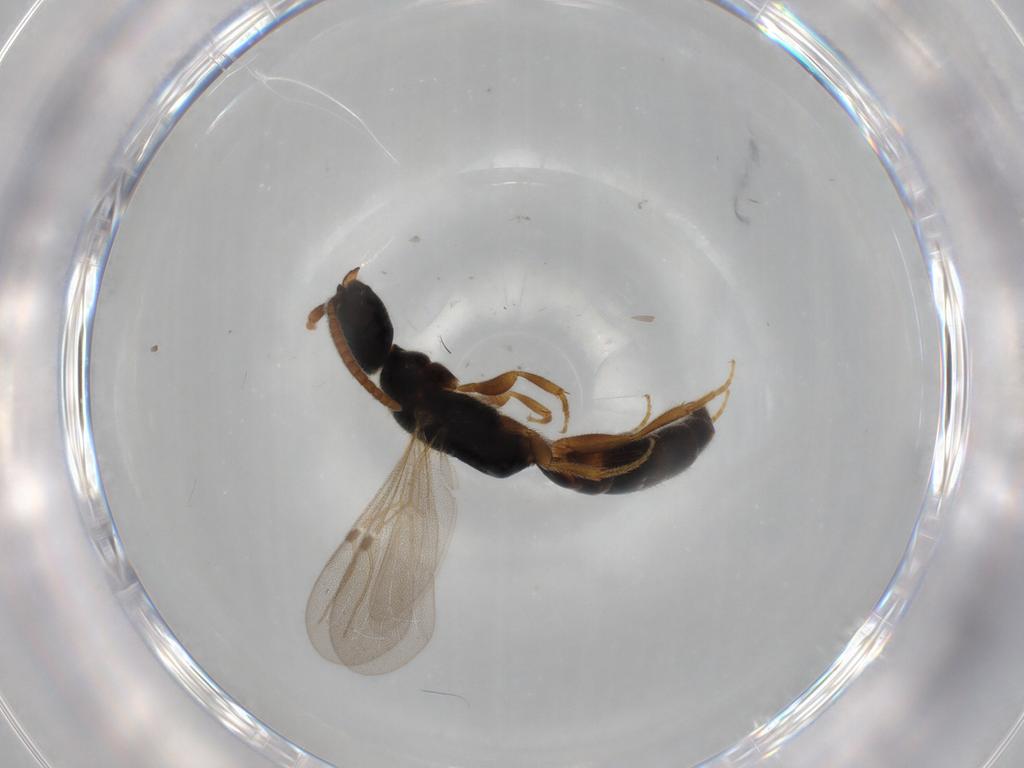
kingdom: Animalia
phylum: Arthropoda
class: Insecta
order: Hymenoptera
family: Bethylidae
